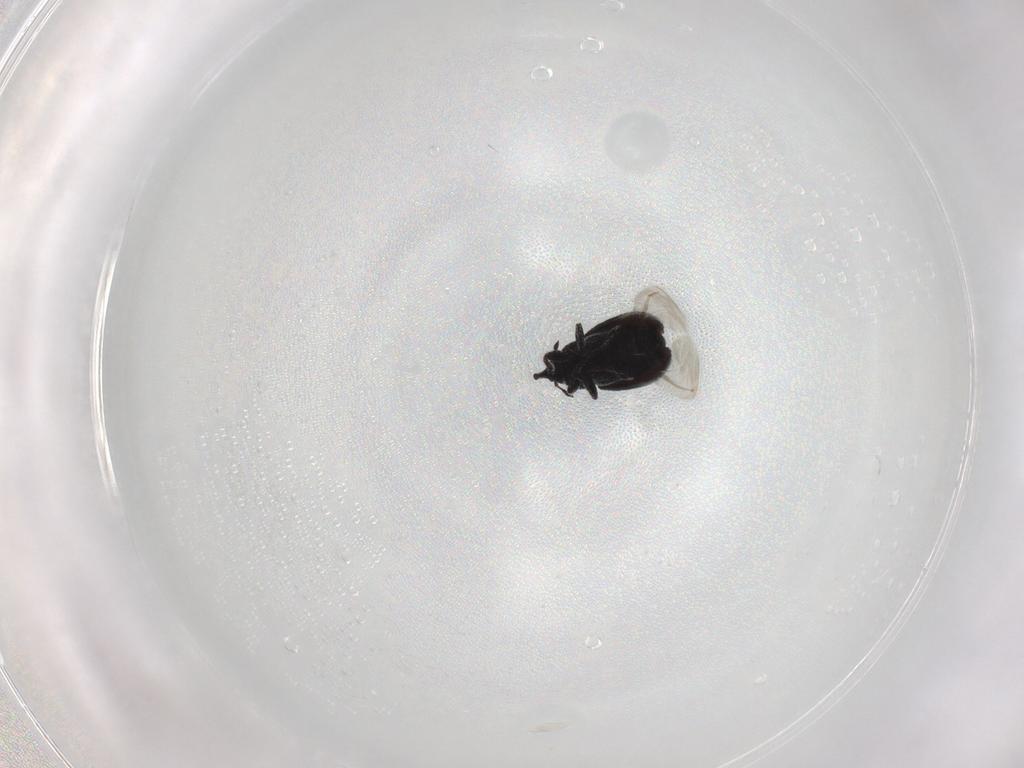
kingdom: Animalia
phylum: Arthropoda
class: Insecta
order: Coleoptera
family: Curculionidae
